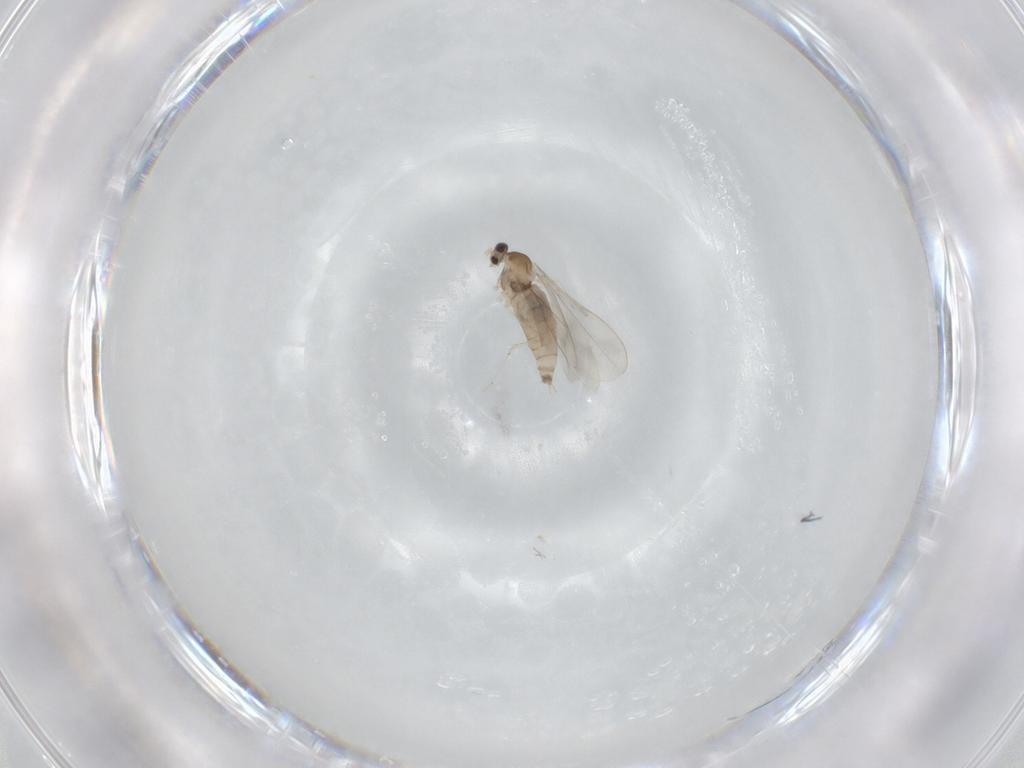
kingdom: Animalia
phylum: Arthropoda
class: Insecta
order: Diptera
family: Cecidomyiidae
